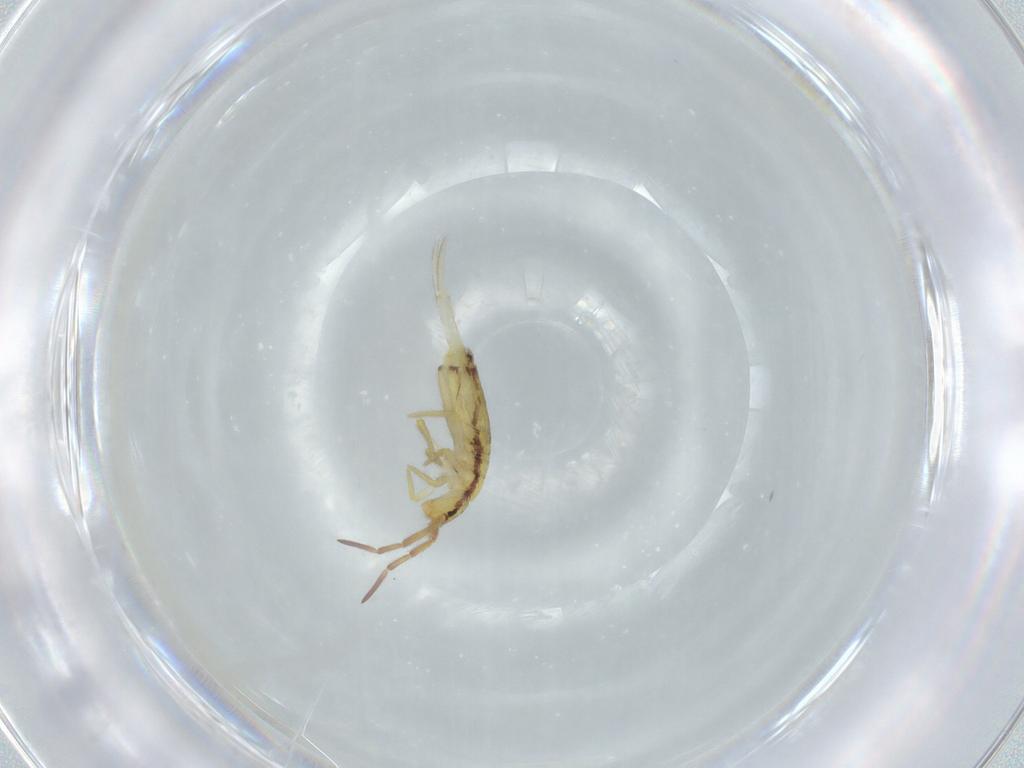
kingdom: Animalia
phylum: Arthropoda
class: Collembola
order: Entomobryomorpha
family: Entomobryidae
